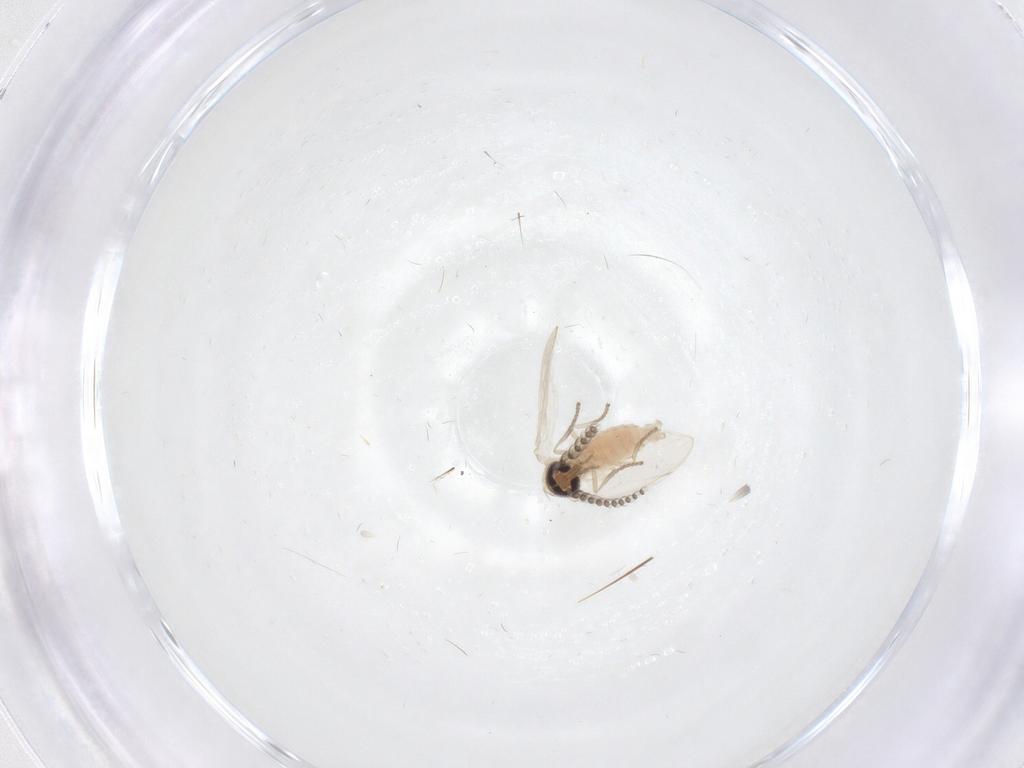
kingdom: Animalia
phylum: Arthropoda
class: Insecta
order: Diptera
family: Psychodidae
